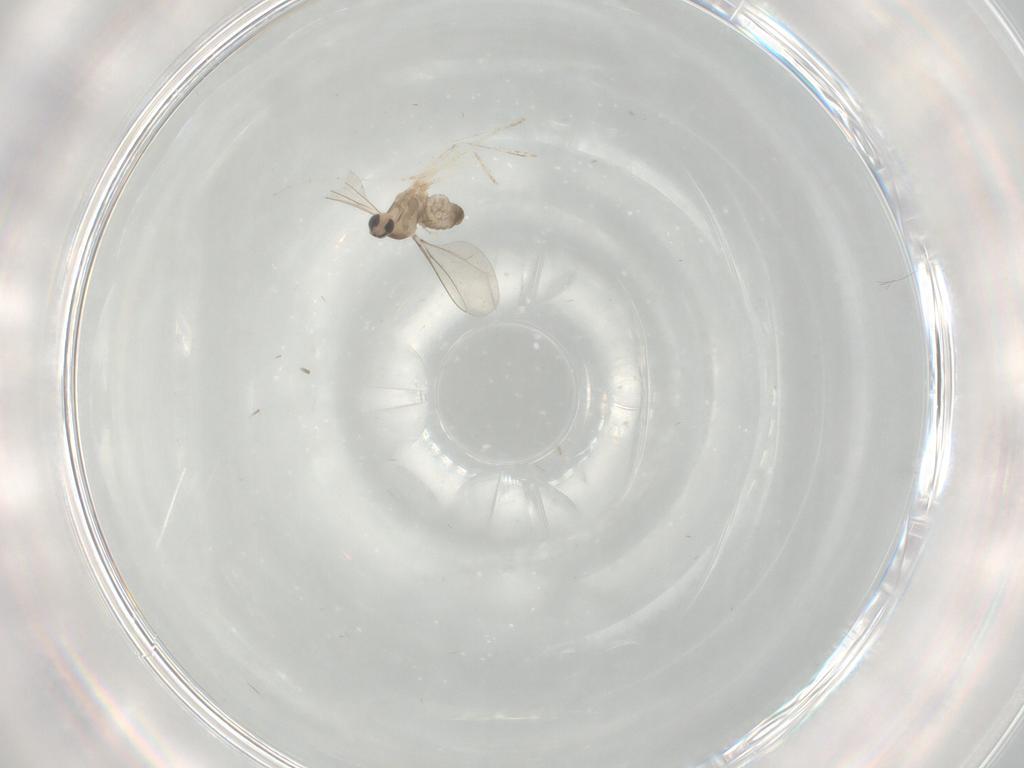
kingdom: Animalia
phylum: Arthropoda
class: Insecta
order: Diptera
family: Cecidomyiidae
